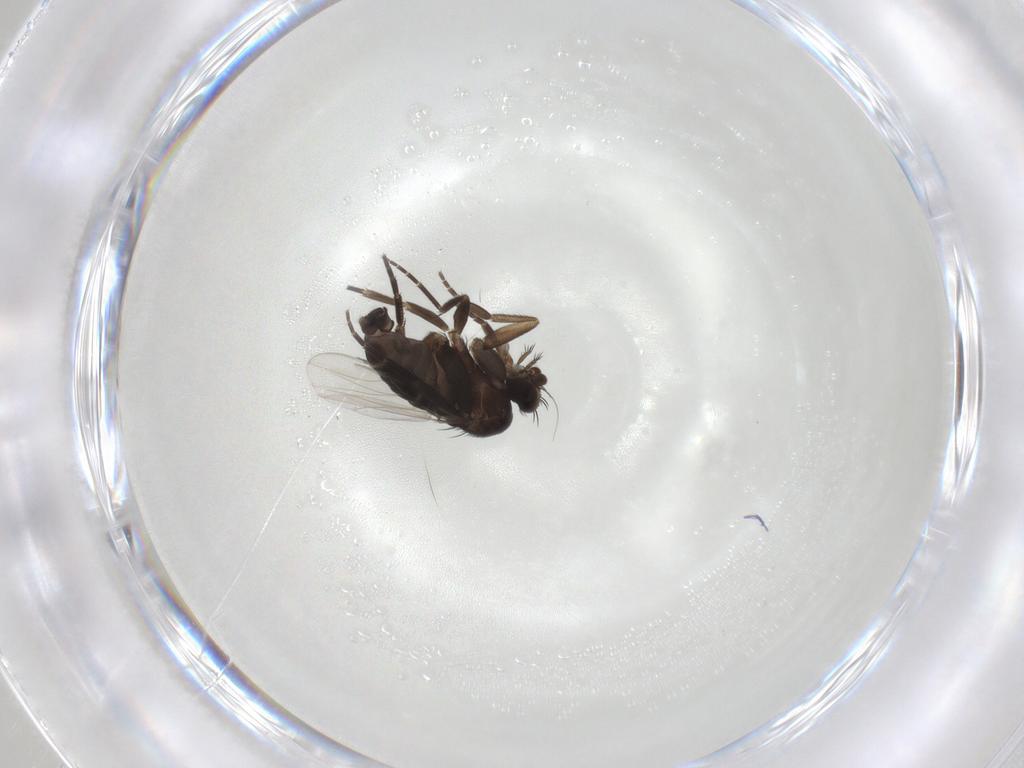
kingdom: Animalia
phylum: Arthropoda
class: Insecta
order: Diptera
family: Phoridae
